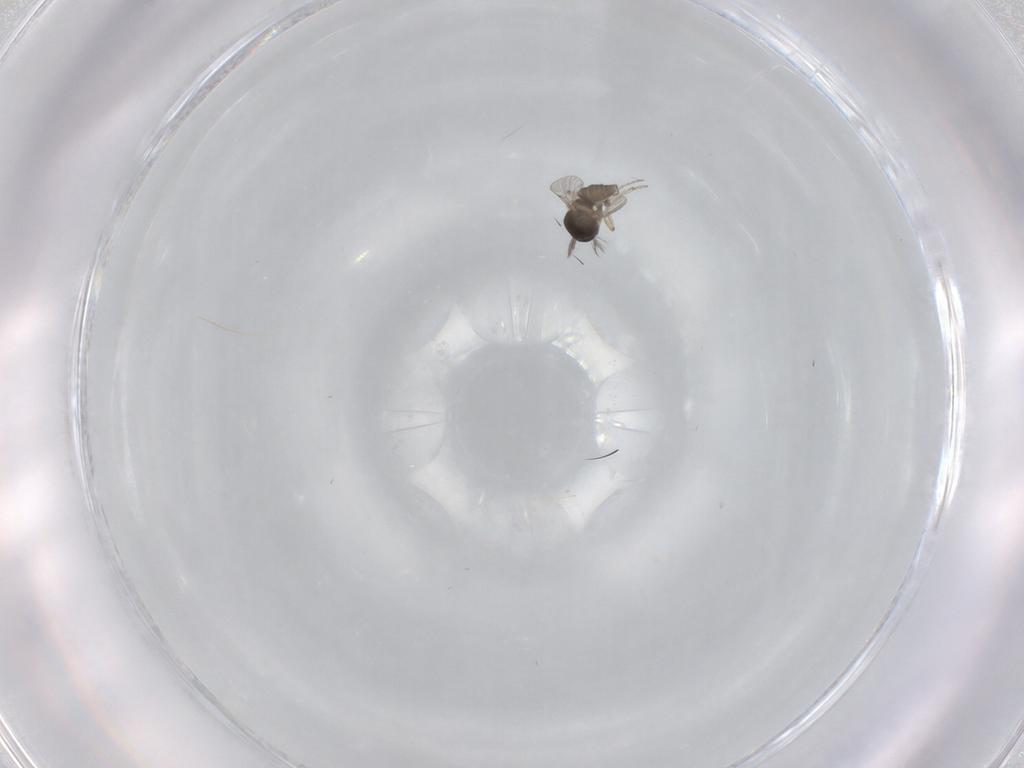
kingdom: Animalia
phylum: Arthropoda
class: Insecta
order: Diptera
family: Ceratopogonidae
